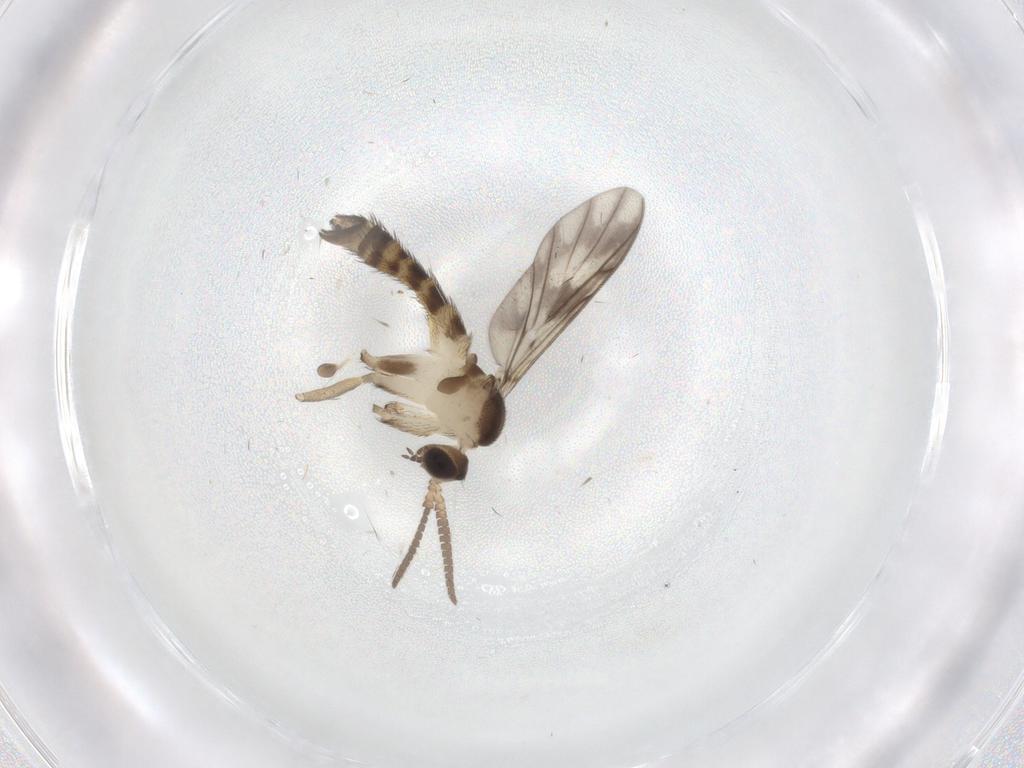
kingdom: Animalia
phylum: Arthropoda
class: Insecta
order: Diptera
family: Keroplatidae
